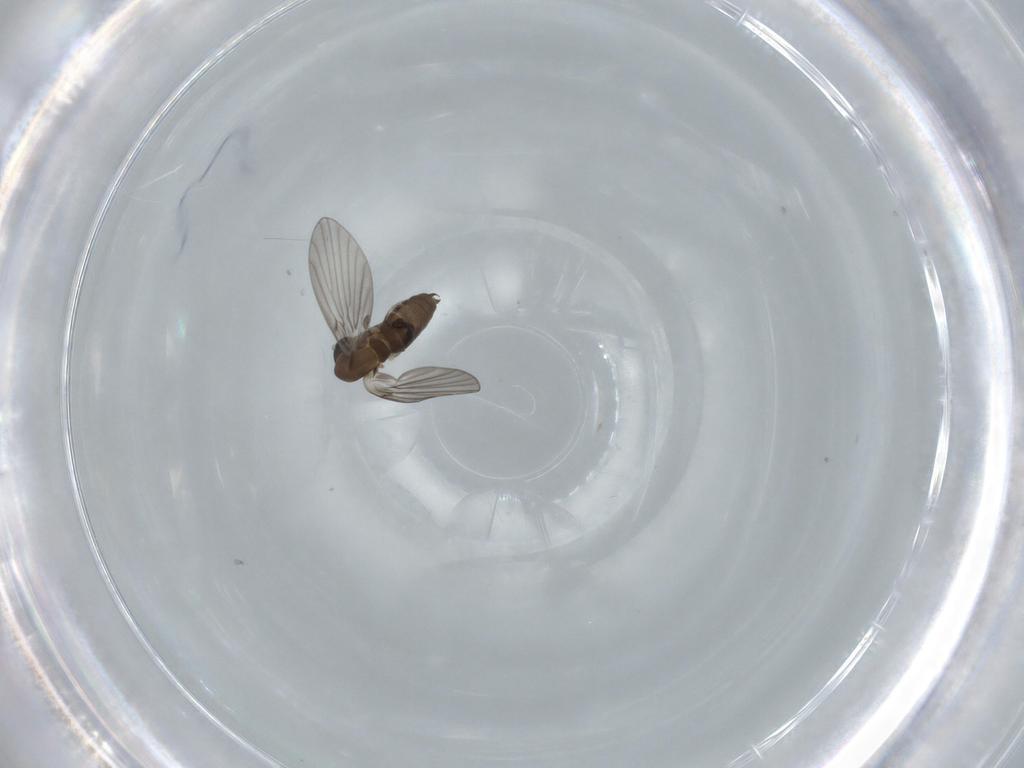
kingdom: Animalia
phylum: Arthropoda
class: Insecta
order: Diptera
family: Psychodidae
